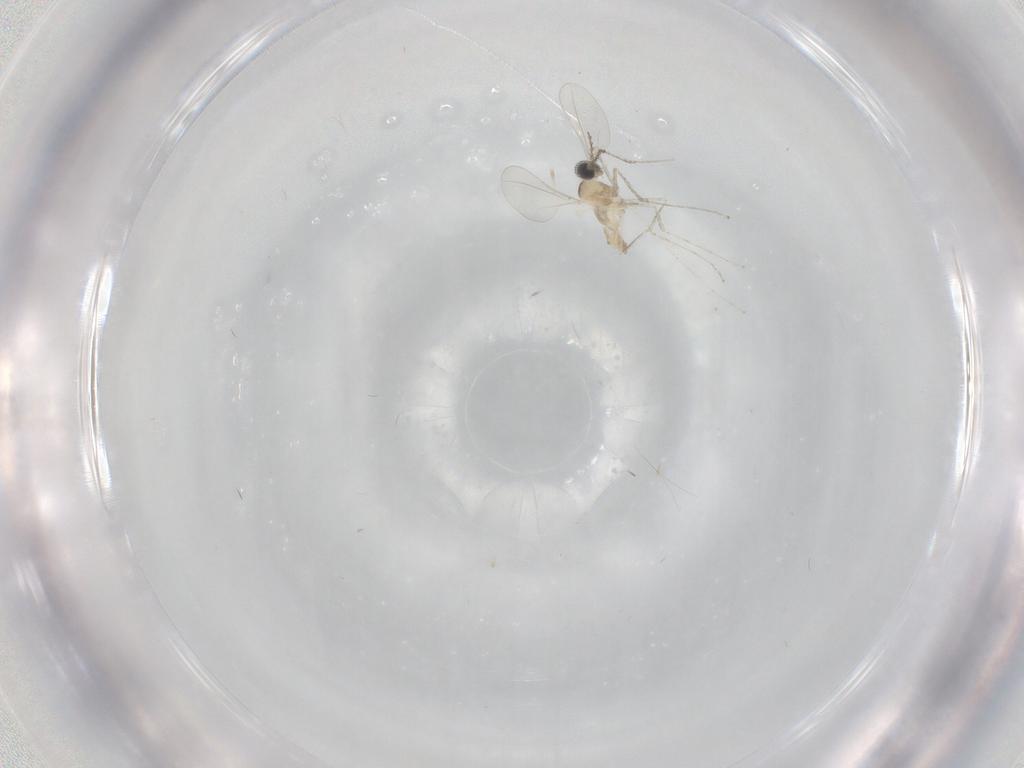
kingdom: Animalia
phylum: Arthropoda
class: Insecta
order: Diptera
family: Cecidomyiidae
